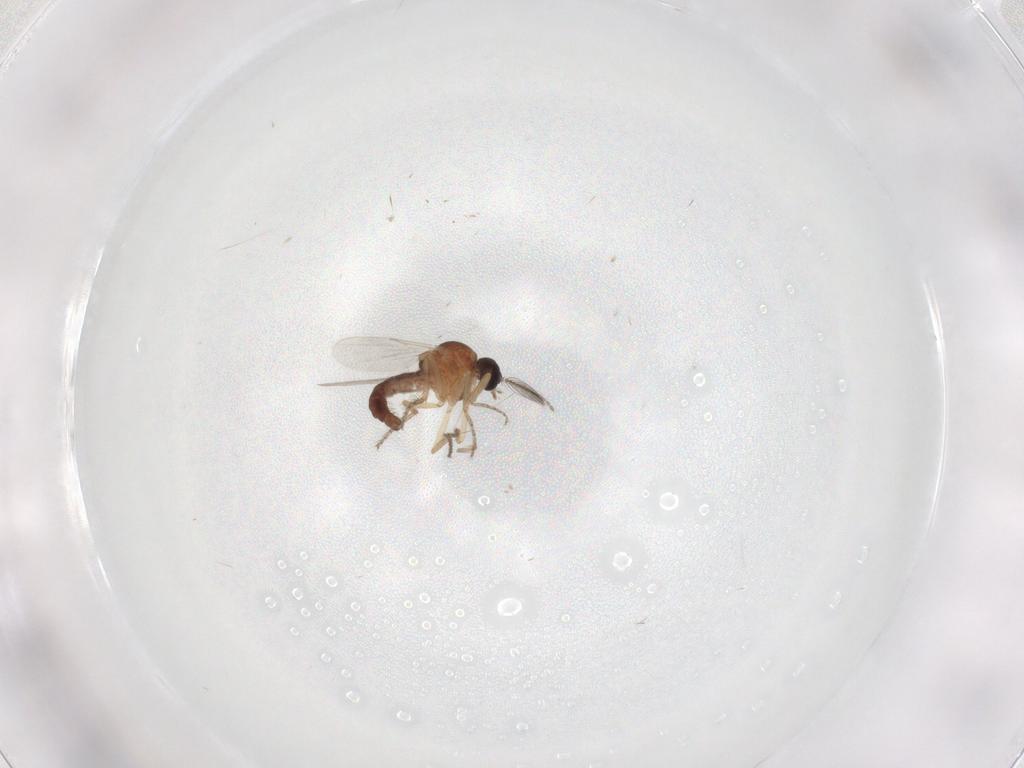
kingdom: Animalia
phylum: Arthropoda
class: Insecta
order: Diptera
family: Ceratopogonidae
